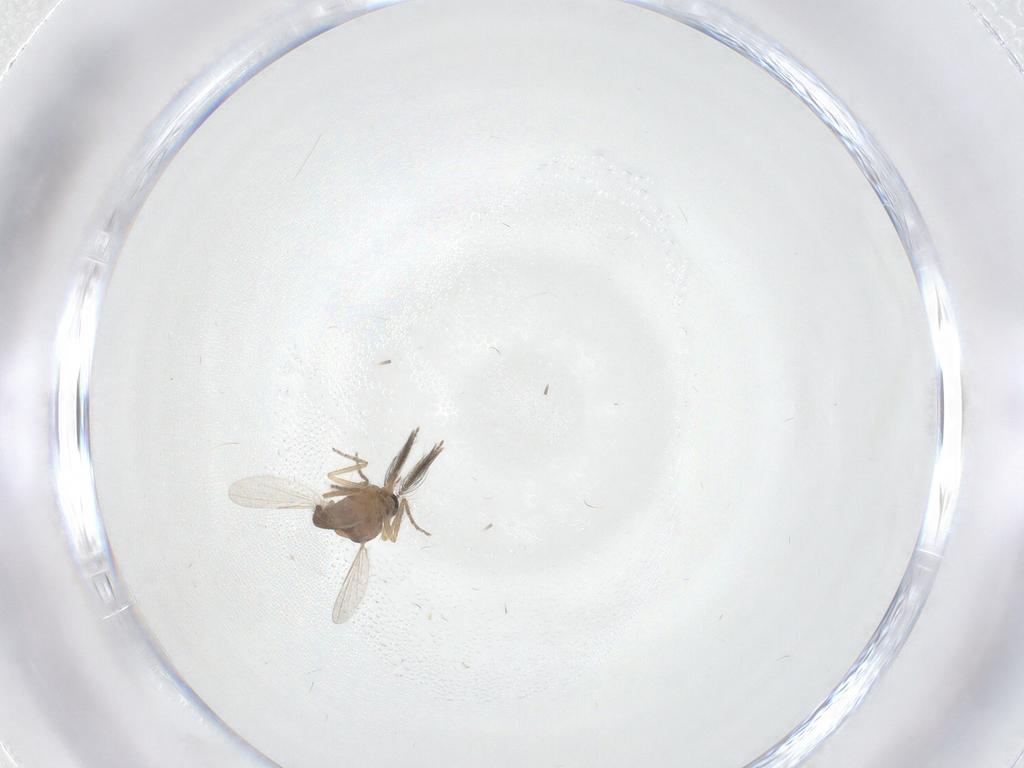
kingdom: Animalia
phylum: Arthropoda
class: Insecta
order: Diptera
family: Ceratopogonidae
